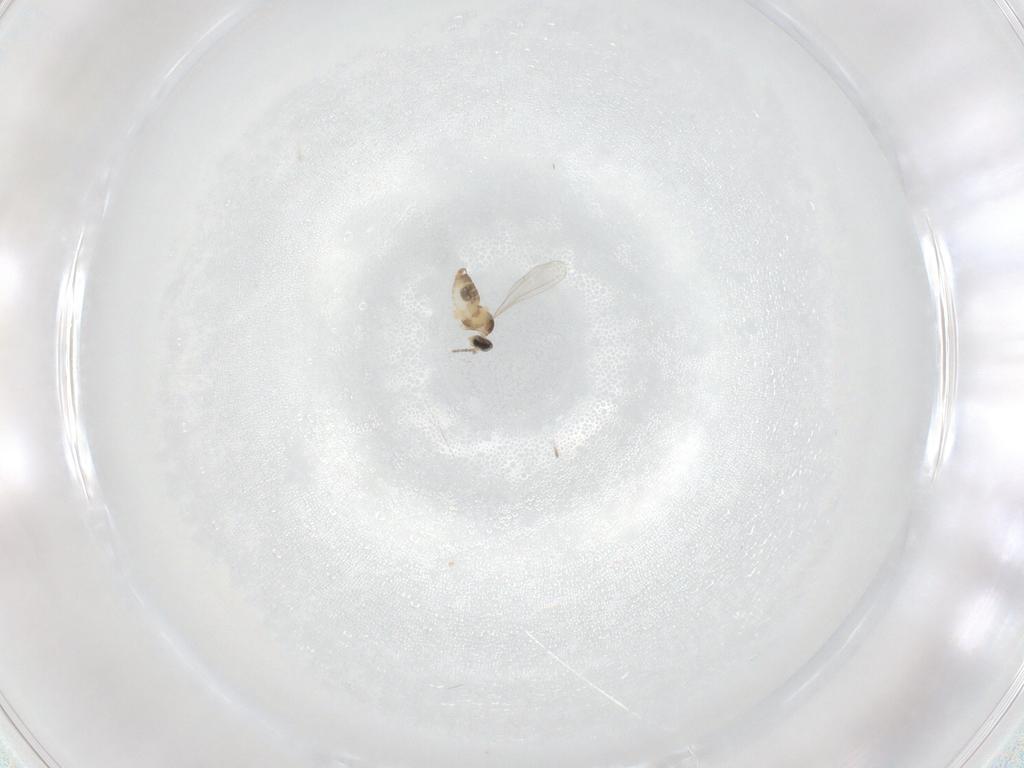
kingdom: Animalia
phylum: Arthropoda
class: Insecta
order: Diptera
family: Cecidomyiidae
